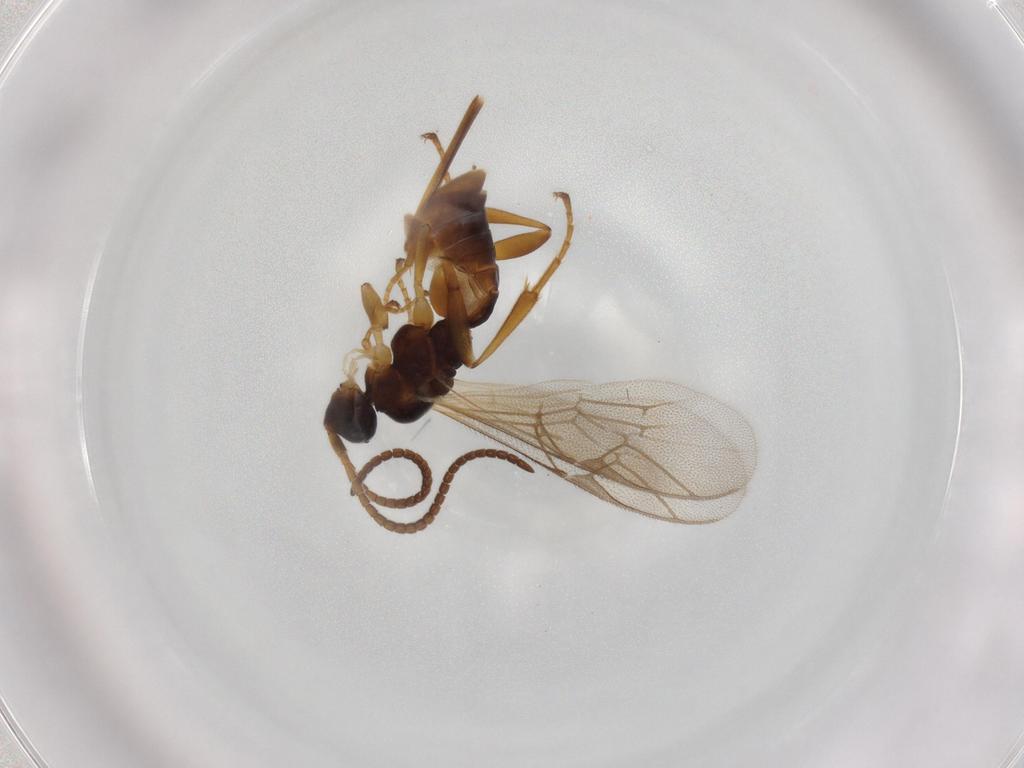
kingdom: Animalia
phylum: Arthropoda
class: Insecta
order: Hymenoptera
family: Ichneumonidae
